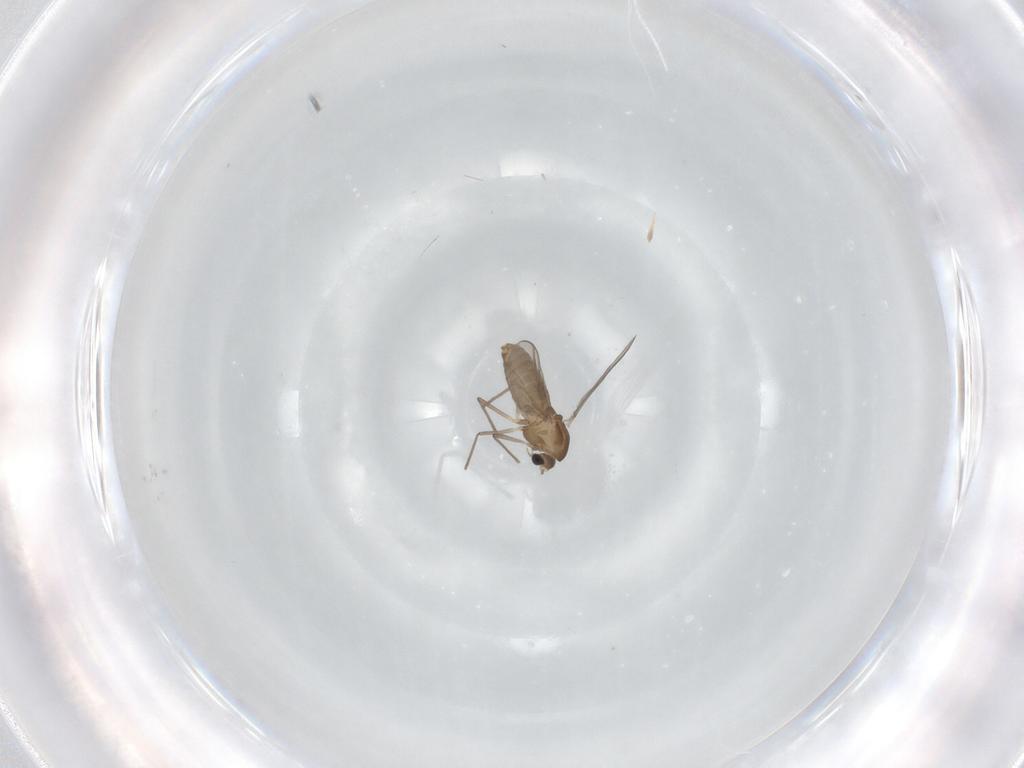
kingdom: Animalia
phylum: Arthropoda
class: Insecta
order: Diptera
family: Chironomidae
